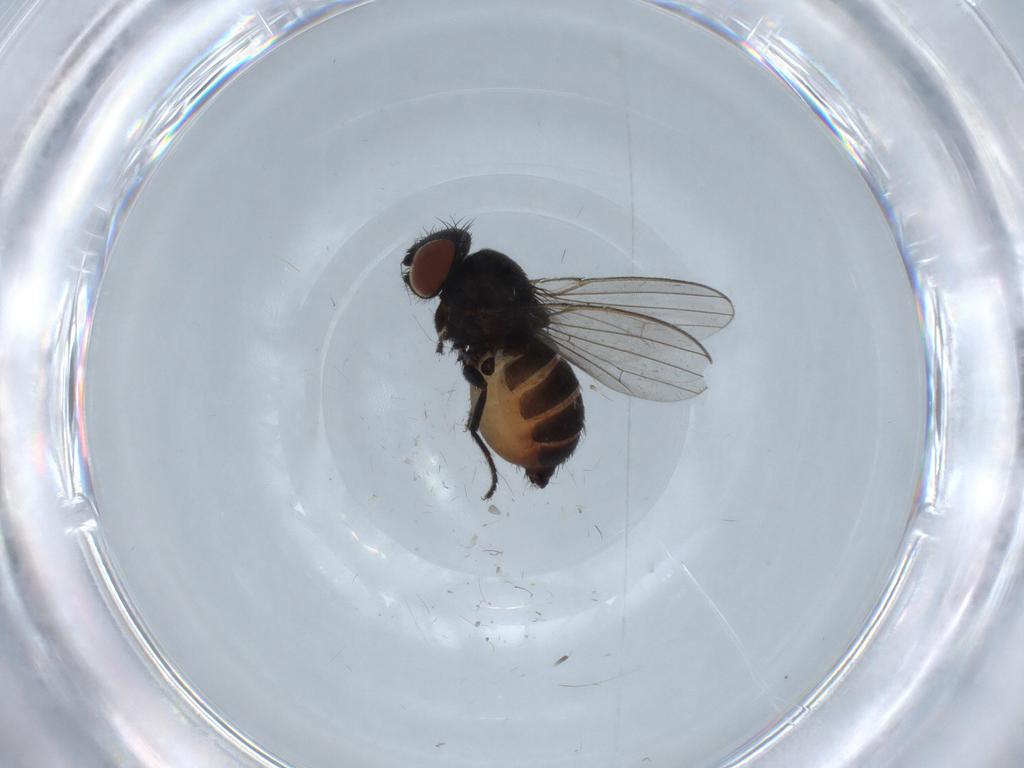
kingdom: Animalia
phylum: Arthropoda
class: Insecta
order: Diptera
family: Milichiidae
